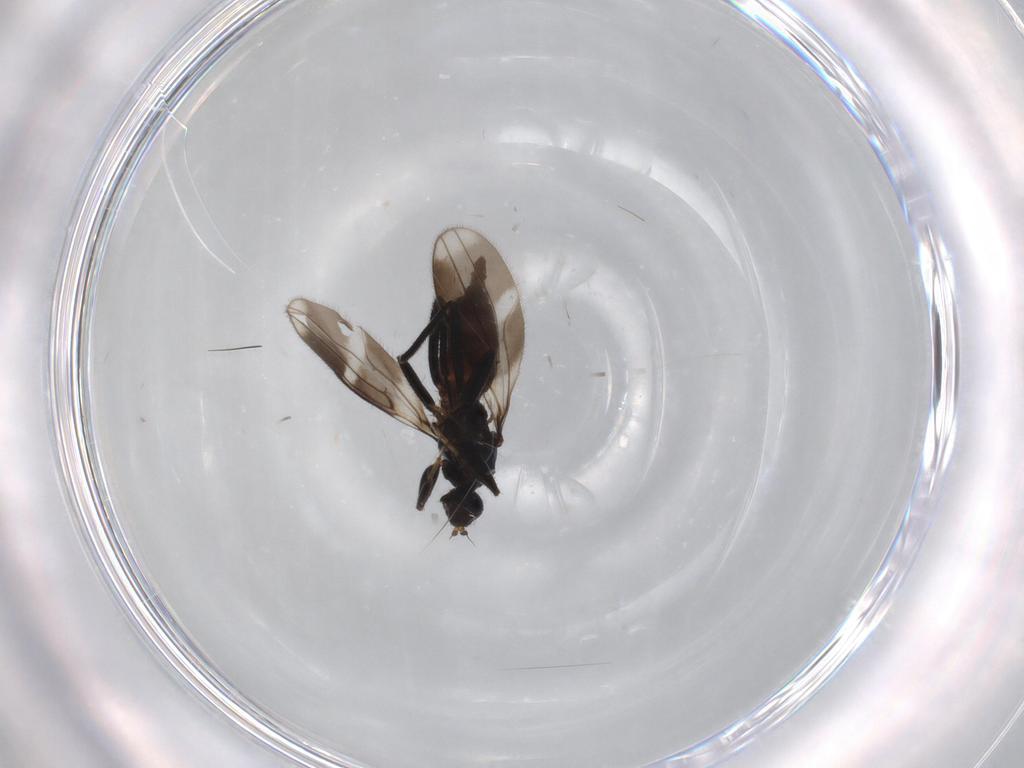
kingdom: Animalia
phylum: Arthropoda
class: Insecta
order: Diptera
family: Hybotidae
